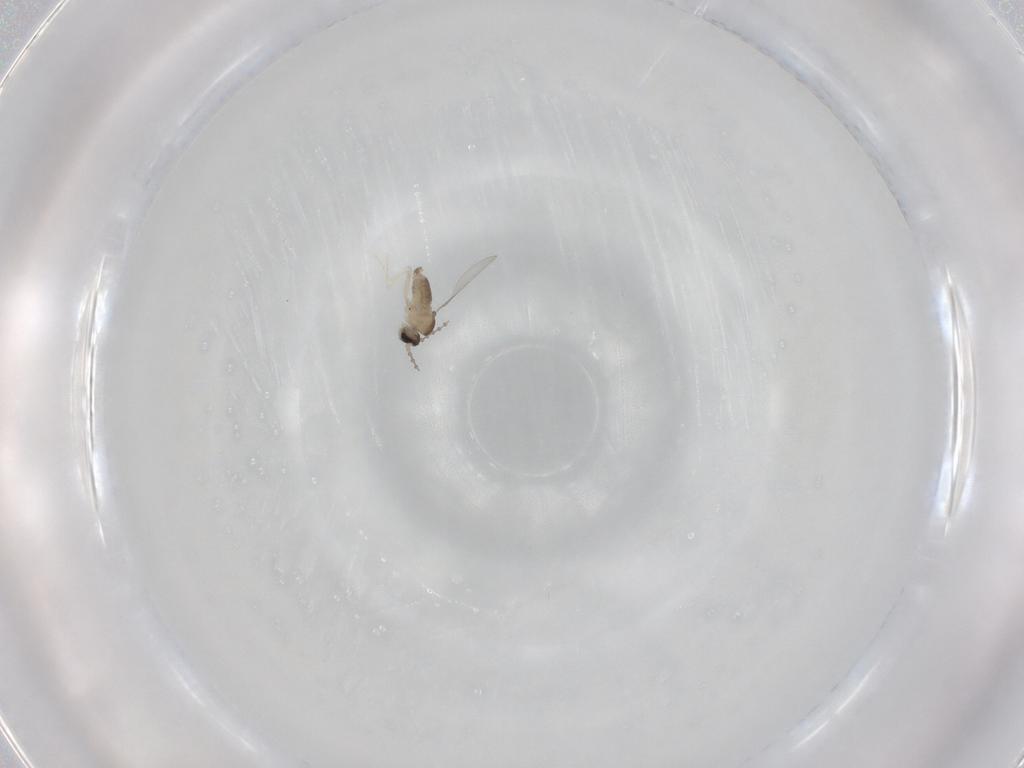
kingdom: Animalia
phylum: Arthropoda
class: Insecta
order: Diptera
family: Cecidomyiidae
